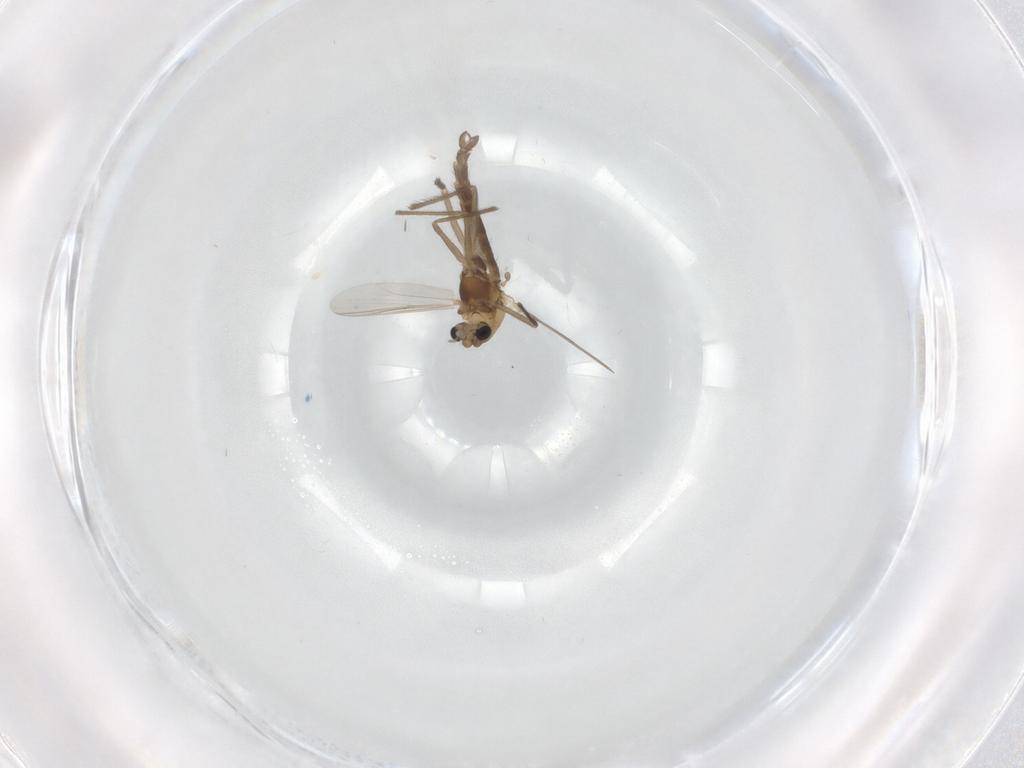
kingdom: Animalia
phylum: Arthropoda
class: Insecta
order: Diptera
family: Chironomidae
